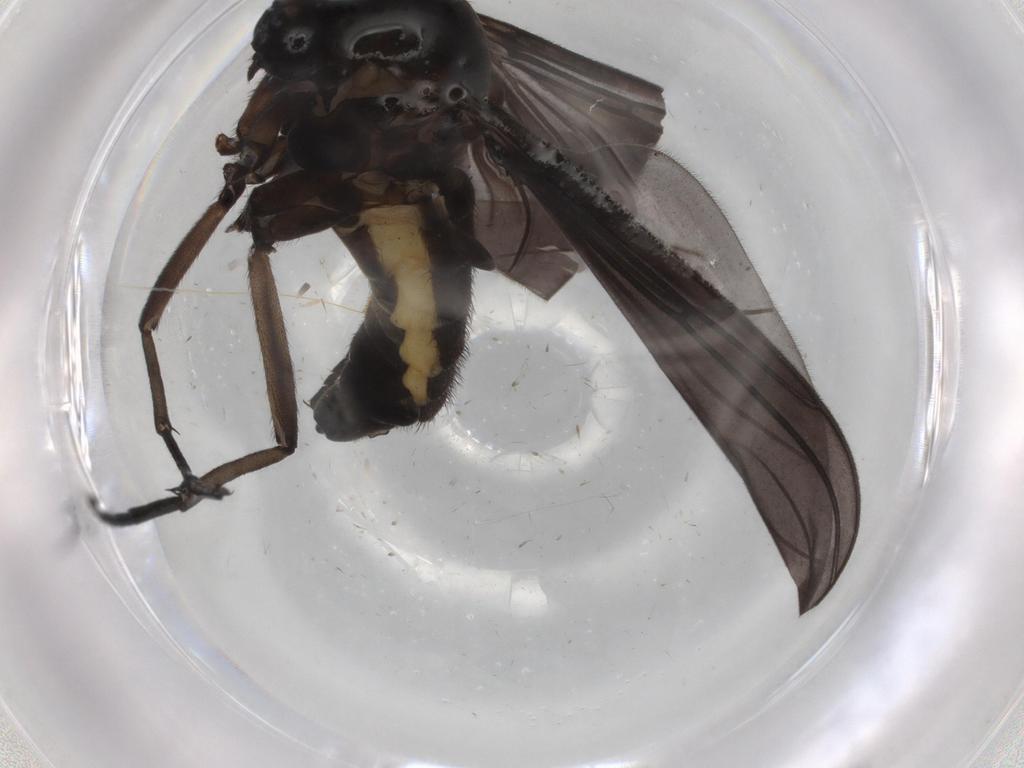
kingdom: Animalia
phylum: Arthropoda
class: Insecta
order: Diptera
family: Sciaridae
